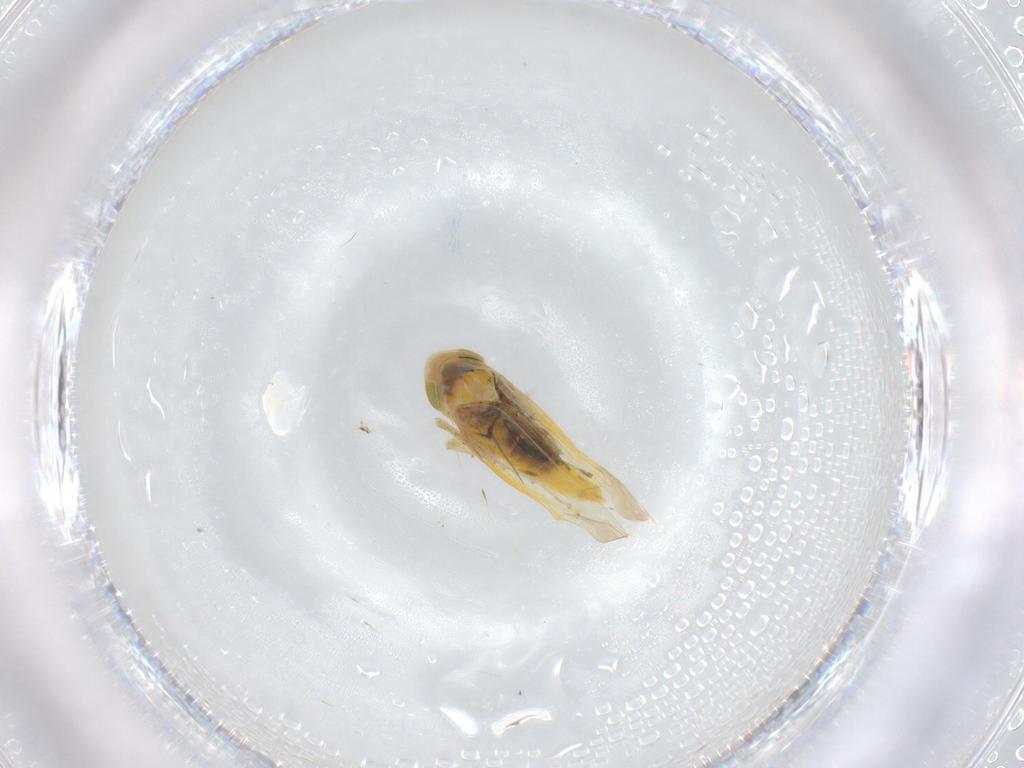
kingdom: Animalia
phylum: Arthropoda
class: Insecta
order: Hemiptera
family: Cicadellidae
